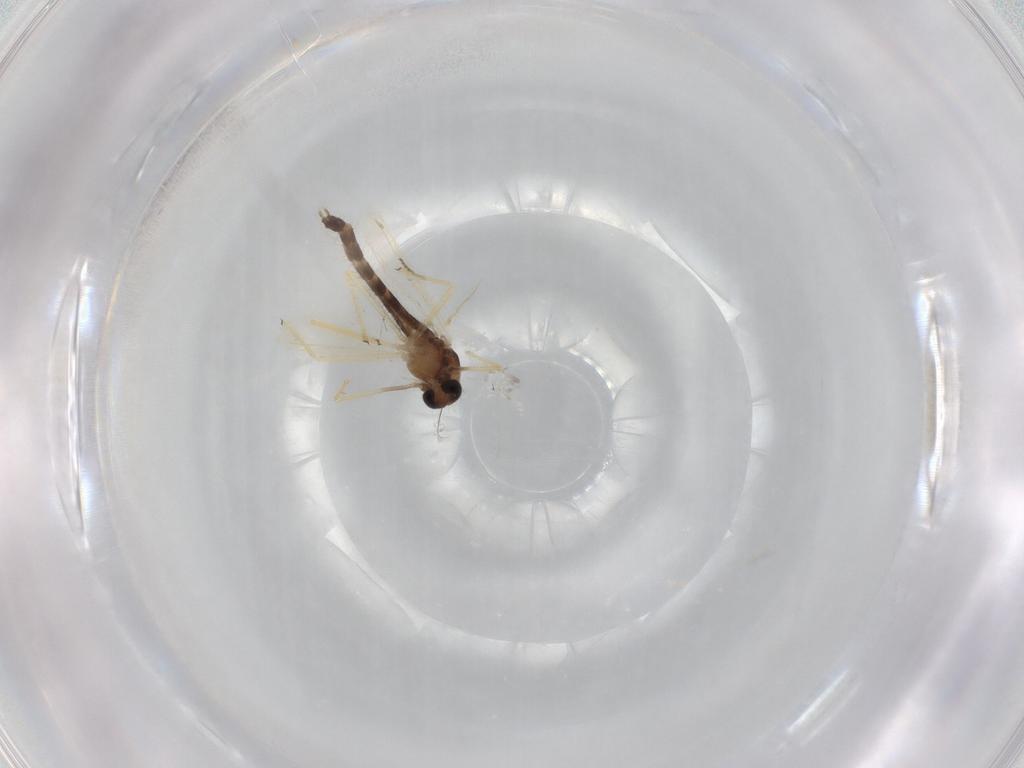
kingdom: Animalia
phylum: Arthropoda
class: Insecta
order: Diptera
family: Chironomidae
